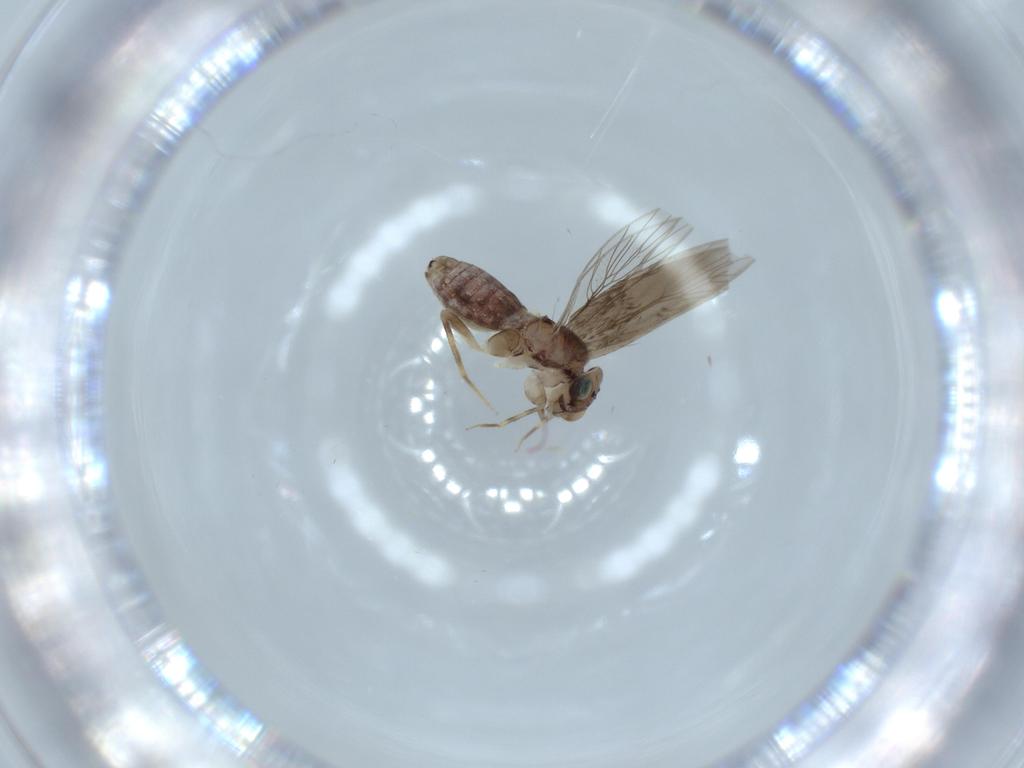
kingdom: Animalia
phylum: Arthropoda
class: Insecta
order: Psocodea
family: Lepidopsocidae
